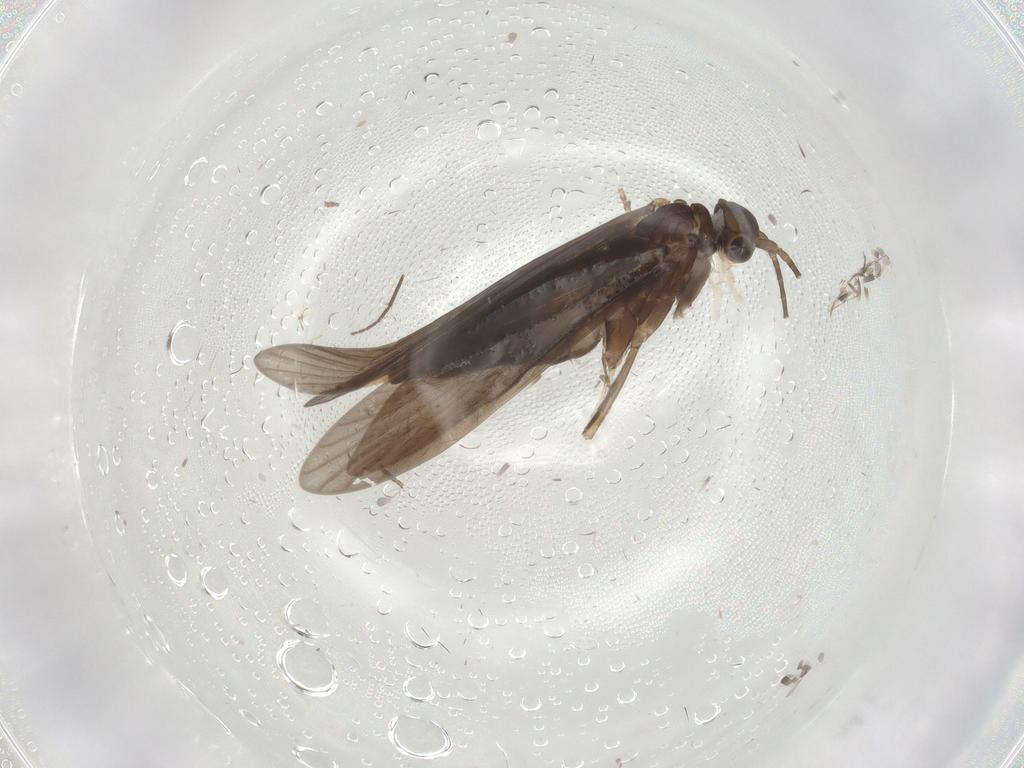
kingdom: Animalia
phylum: Arthropoda
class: Insecta
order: Trichoptera
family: Xiphocentronidae
